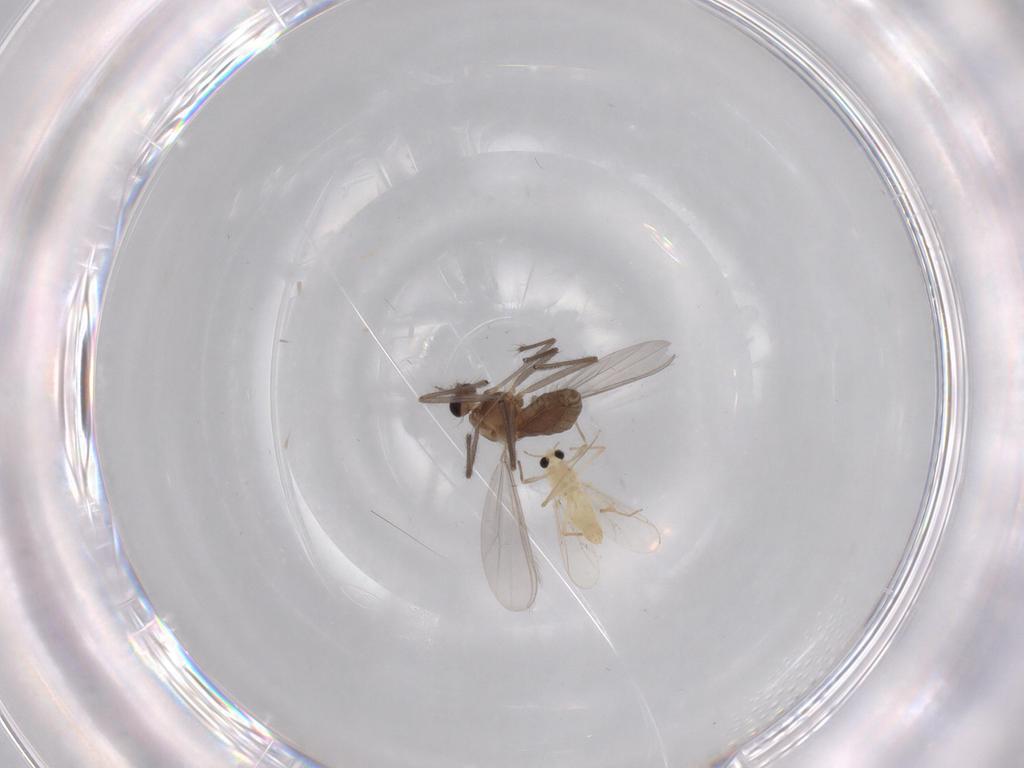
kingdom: Animalia
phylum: Arthropoda
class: Insecta
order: Diptera
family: Chironomidae
